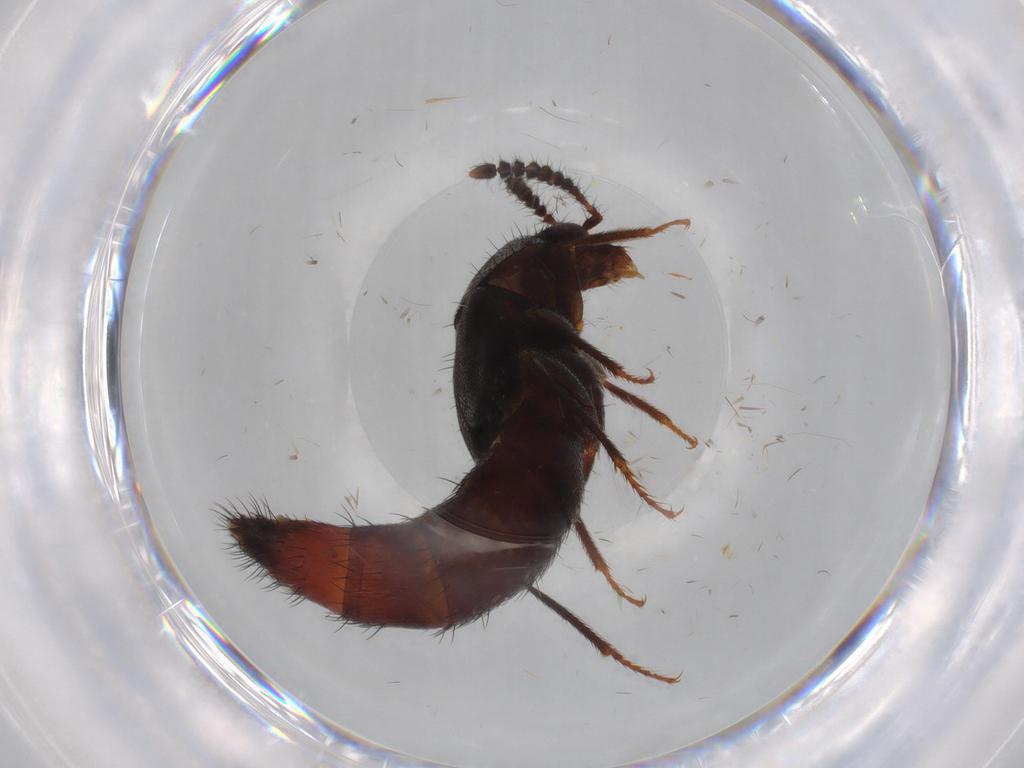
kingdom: Animalia
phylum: Arthropoda
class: Insecta
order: Coleoptera
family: Staphylinidae
